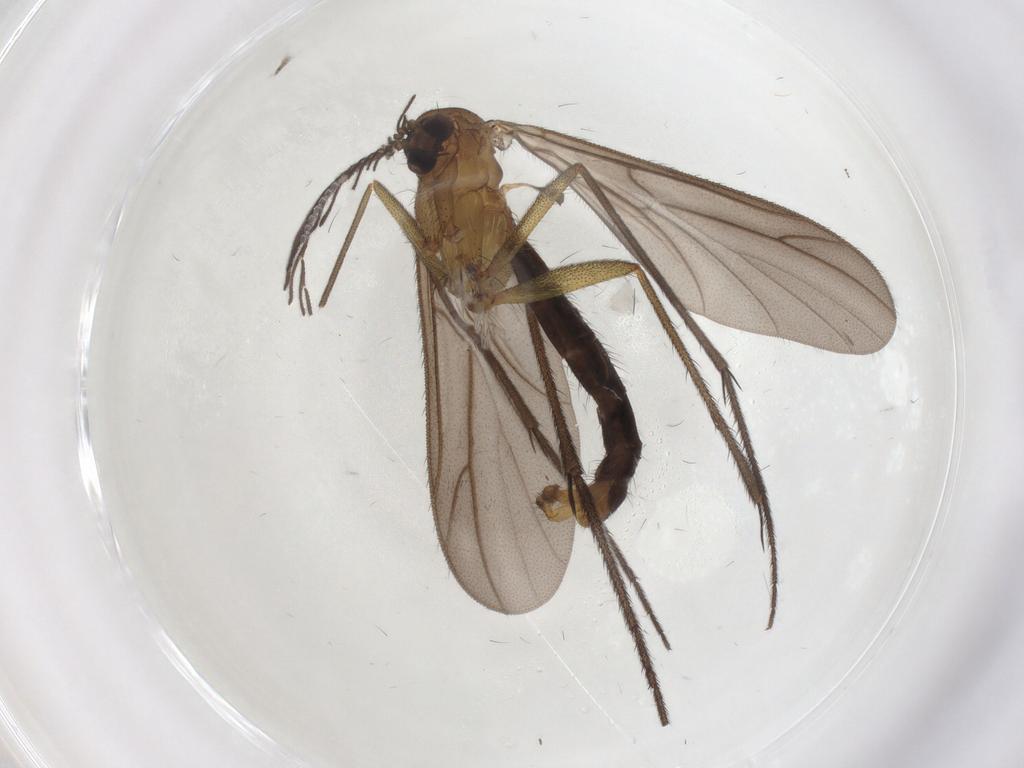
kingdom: Animalia
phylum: Arthropoda
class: Insecta
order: Diptera
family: Ditomyiidae
